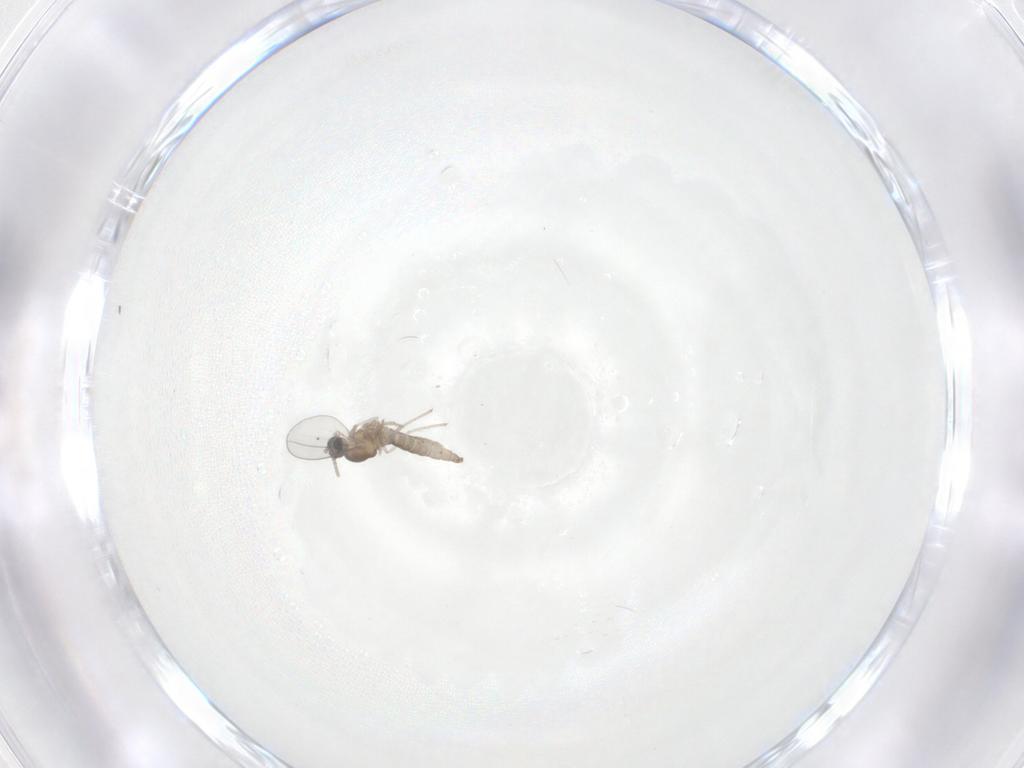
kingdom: Animalia
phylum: Arthropoda
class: Insecta
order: Diptera
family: Cecidomyiidae
